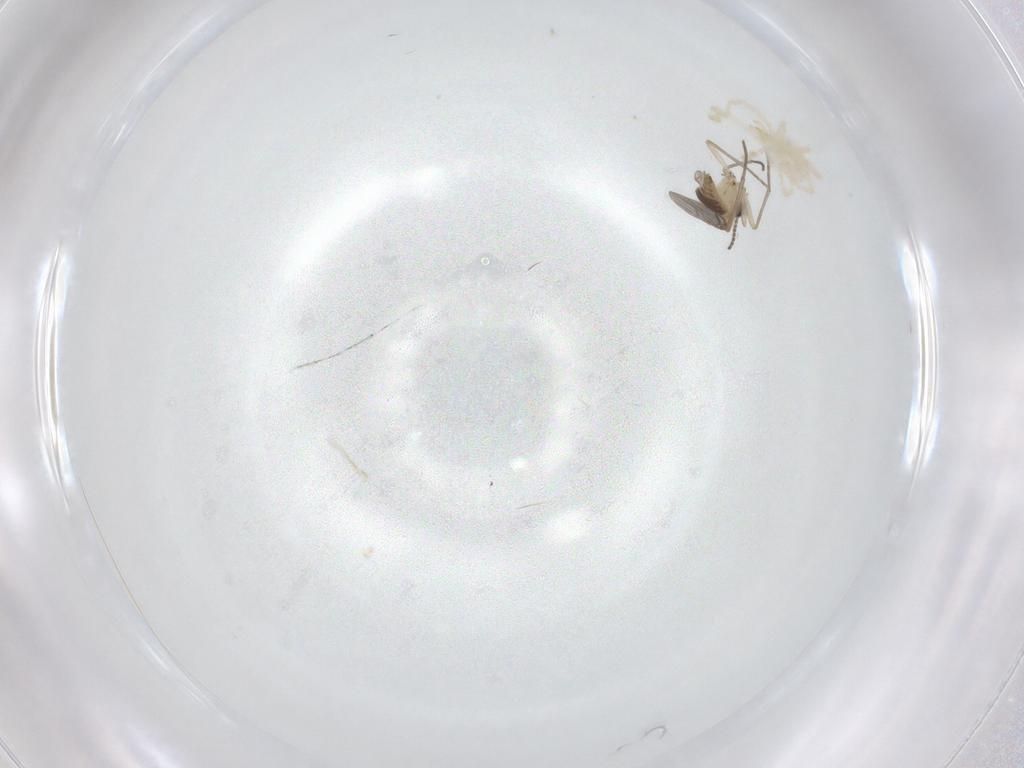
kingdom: Animalia
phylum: Arthropoda
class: Insecta
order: Diptera
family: Sciaridae
